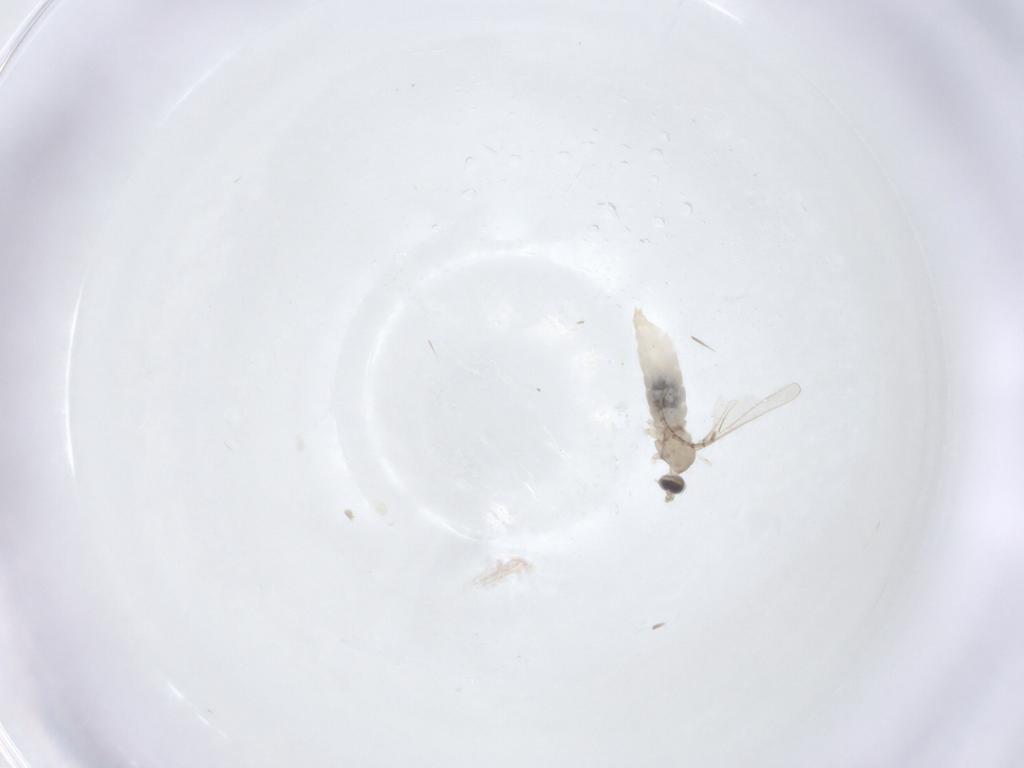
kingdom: Animalia
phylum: Arthropoda
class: Insecta
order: Diptera
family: Cecidomyiidae
